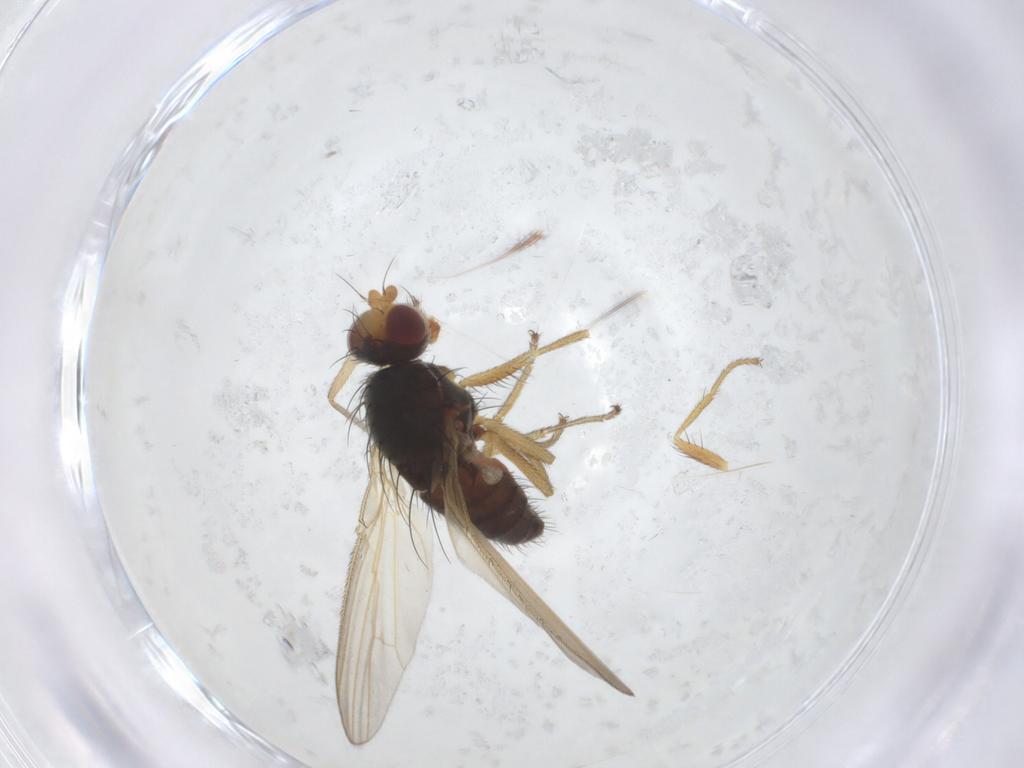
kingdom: Animalia
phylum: Arthropoda
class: Insecta
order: Diptera
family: Heleomyzidae
